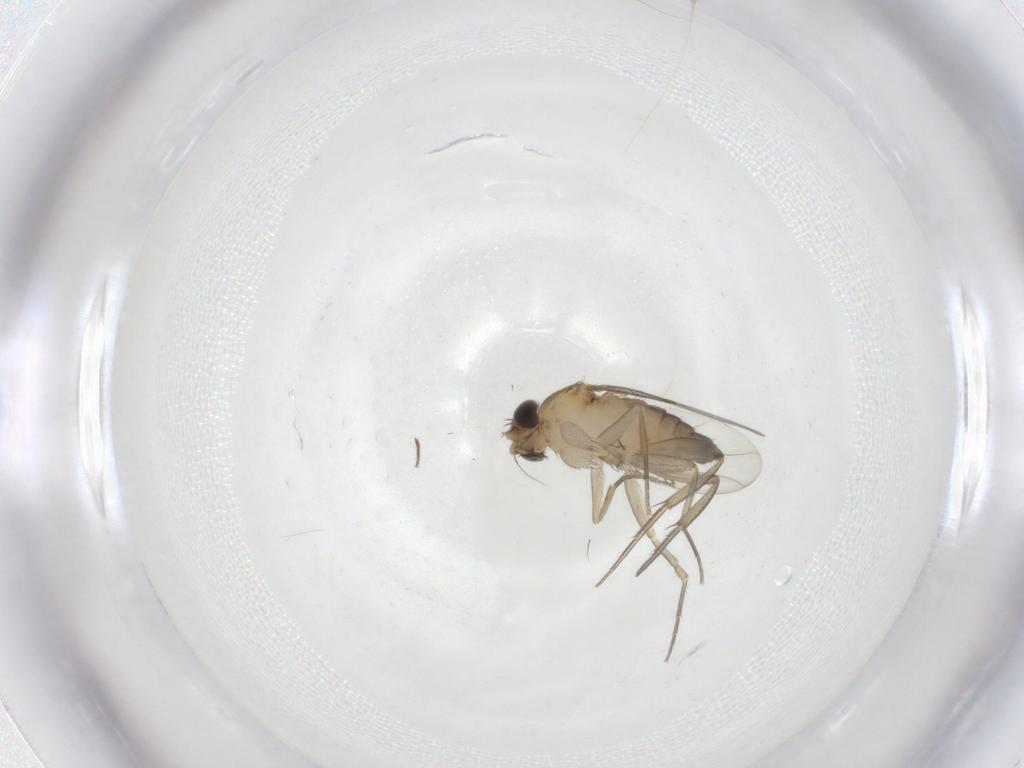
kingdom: Animalia
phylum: Arthropoda
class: Insecta
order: Diptera
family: Phoridae
